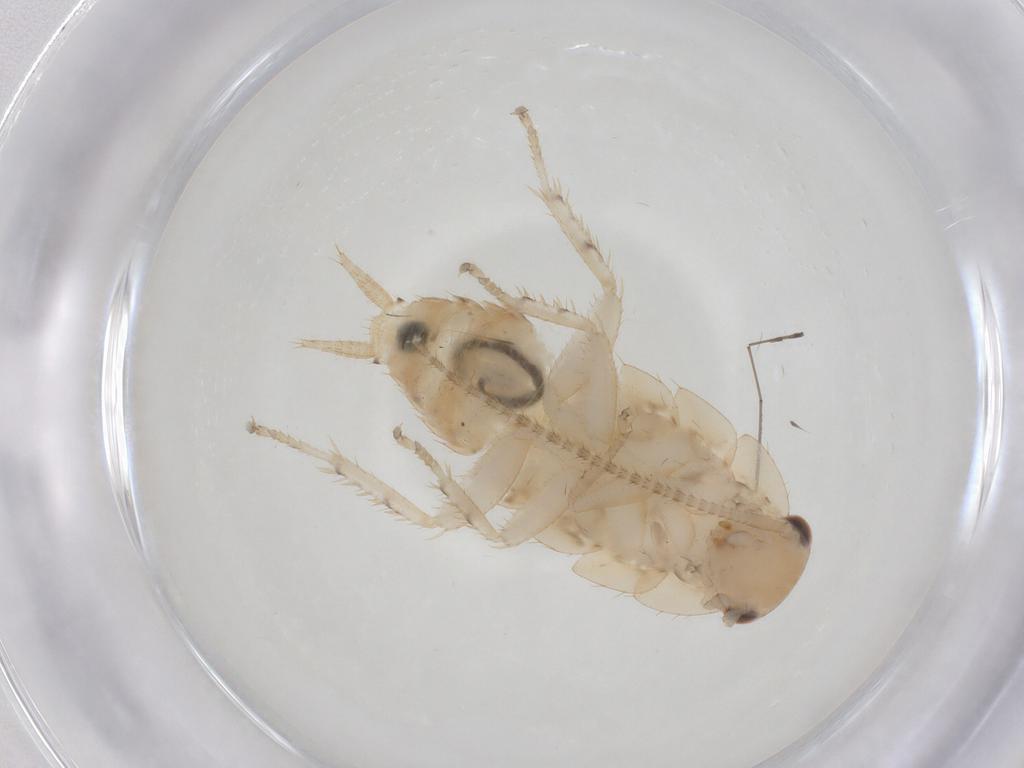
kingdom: Animalia
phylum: Arthropoda
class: Insecta
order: Blattodea
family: Ectobiidae
